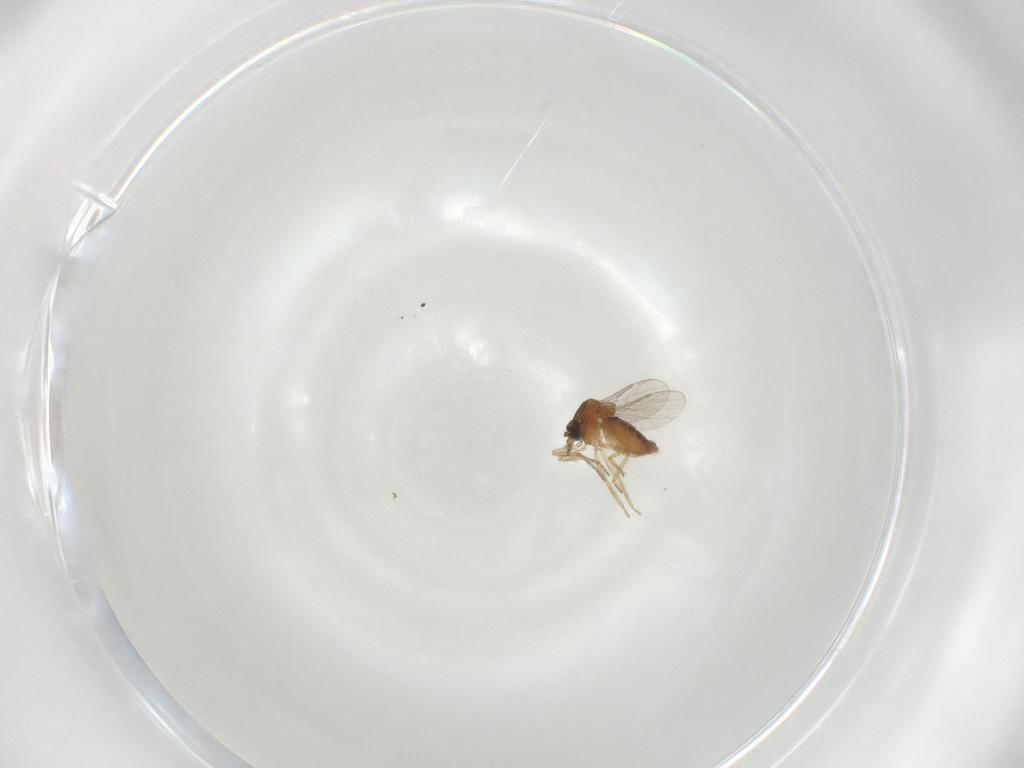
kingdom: Animalia
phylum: Arthropoda
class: Insecta
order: Diptera
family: Ceratopogonidae
